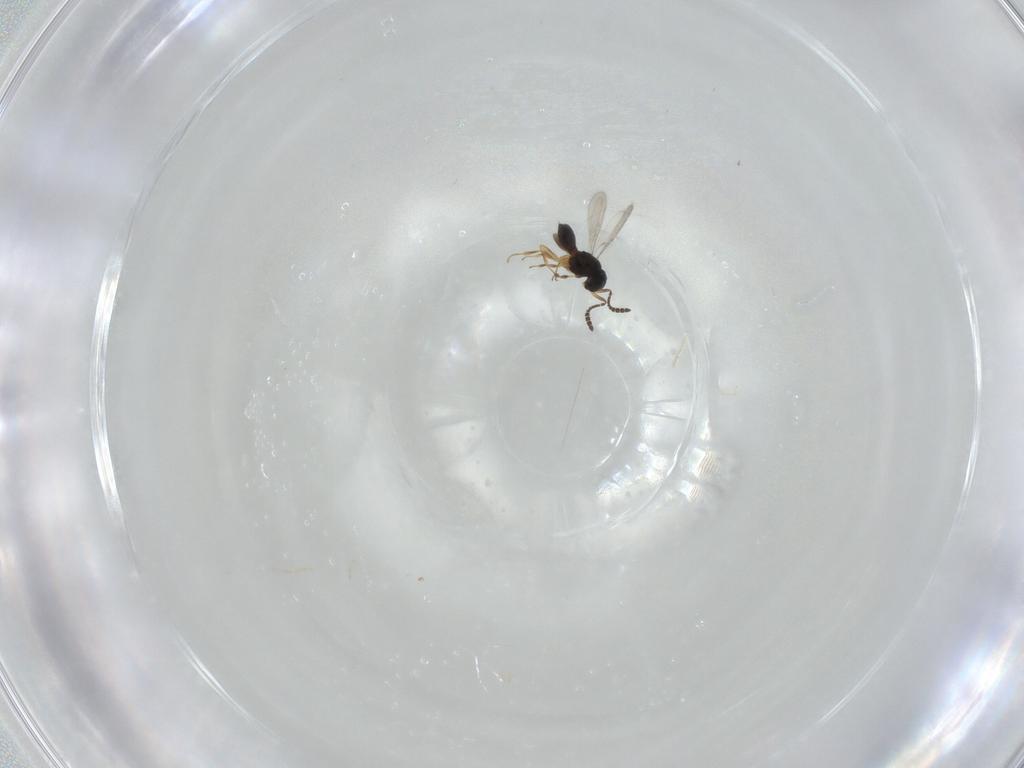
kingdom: Animalia
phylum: Arthropoda
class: Insecta
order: Hymenoptera
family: Scelionidae
